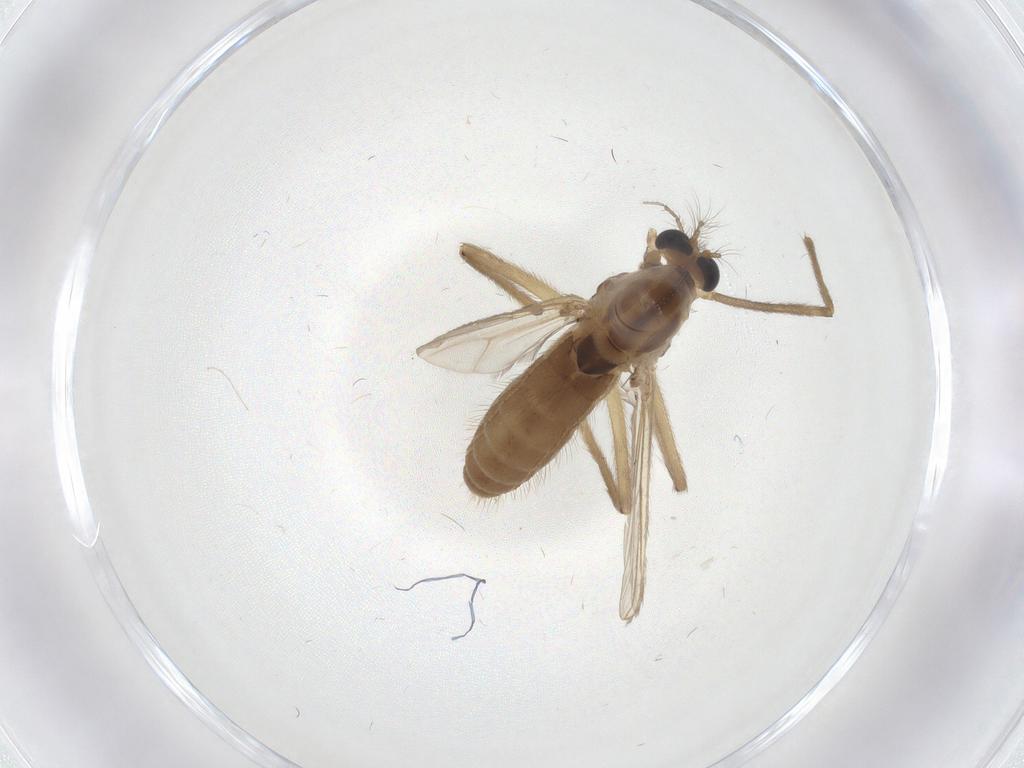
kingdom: Animalia
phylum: Arthropoda
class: Insecta
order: Diptera
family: Chironomidae
